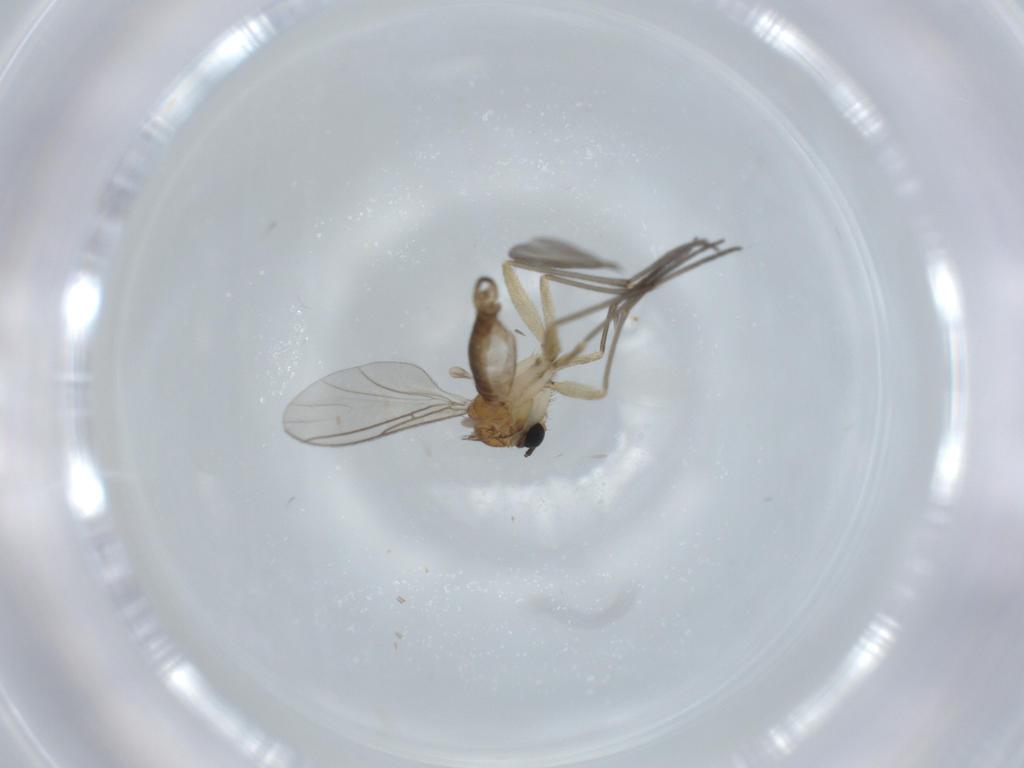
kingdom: Animalia
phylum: Arthropoda
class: Insecta
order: Diptera
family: Sciaridae
